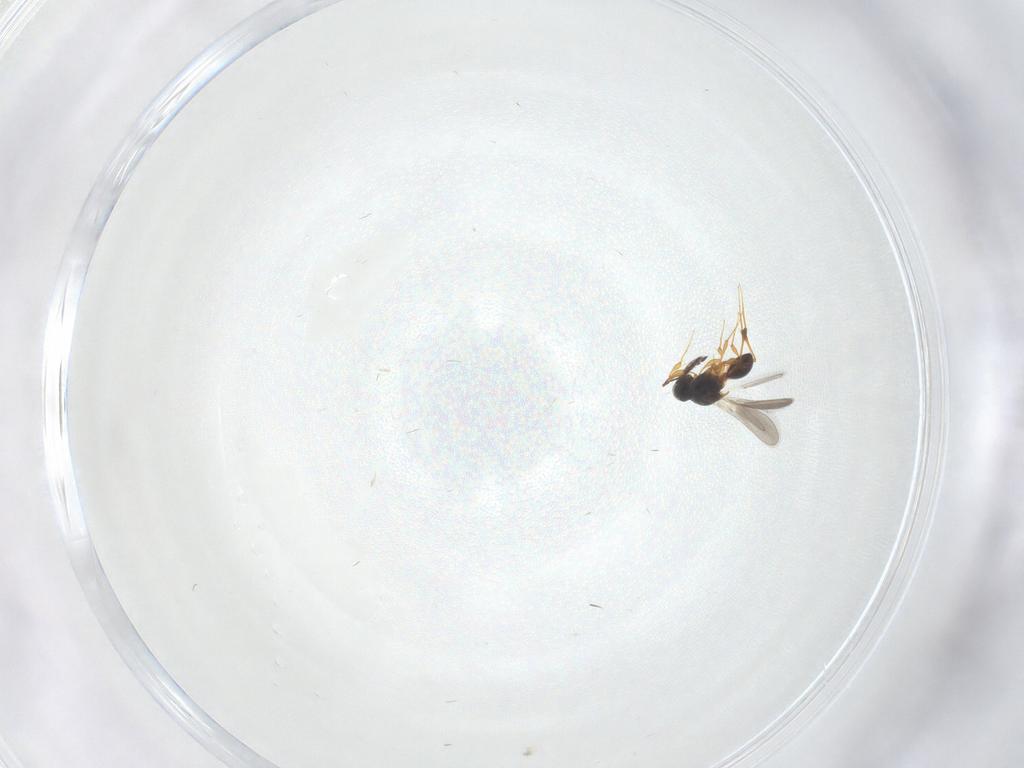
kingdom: Animalia
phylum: Arthropoda
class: Insecta
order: Hymenoptera
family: Platygastridae
